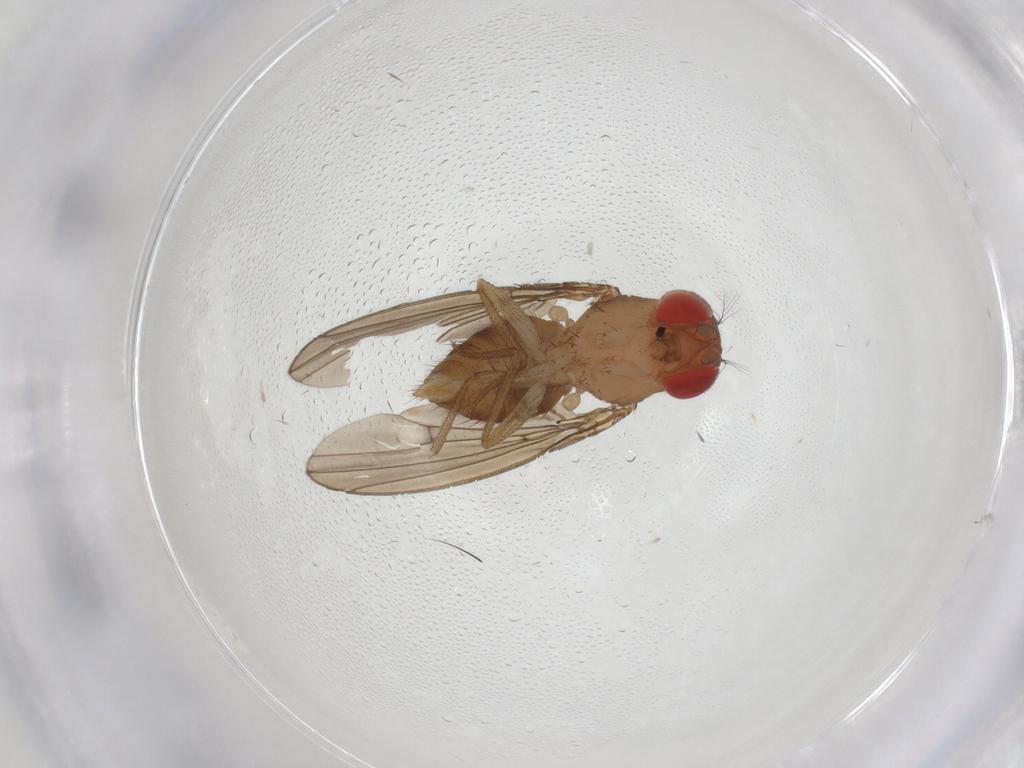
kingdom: Animalia
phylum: Arthropoda
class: Insecta
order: Diptera
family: Drosophilidae
